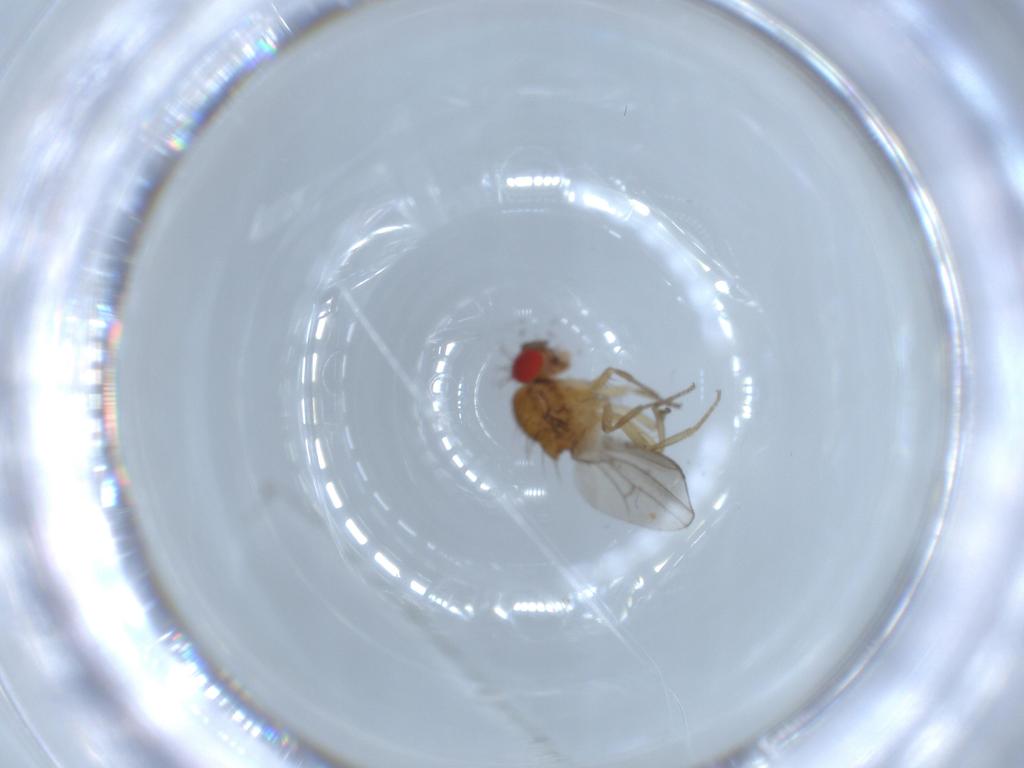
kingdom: Animalia
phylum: Arthropoda
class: Insecta
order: Diptera
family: Drosophilidae
